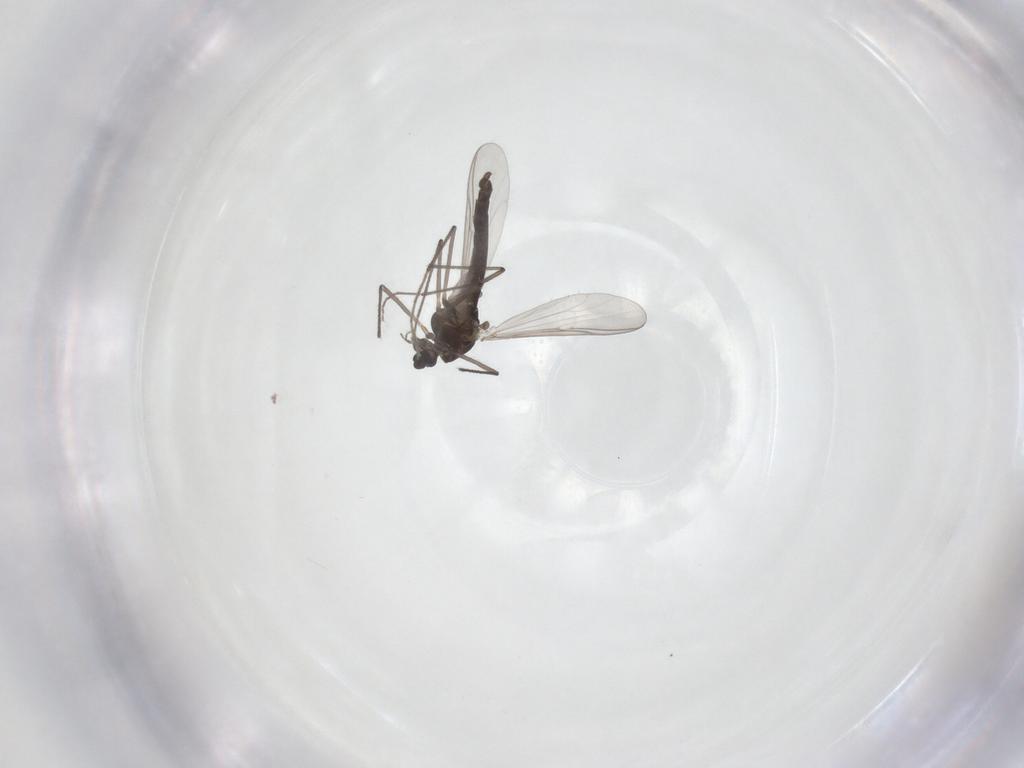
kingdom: Animalia
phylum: Arthropoda
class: Insecta
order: Diptera
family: Chironomidae
